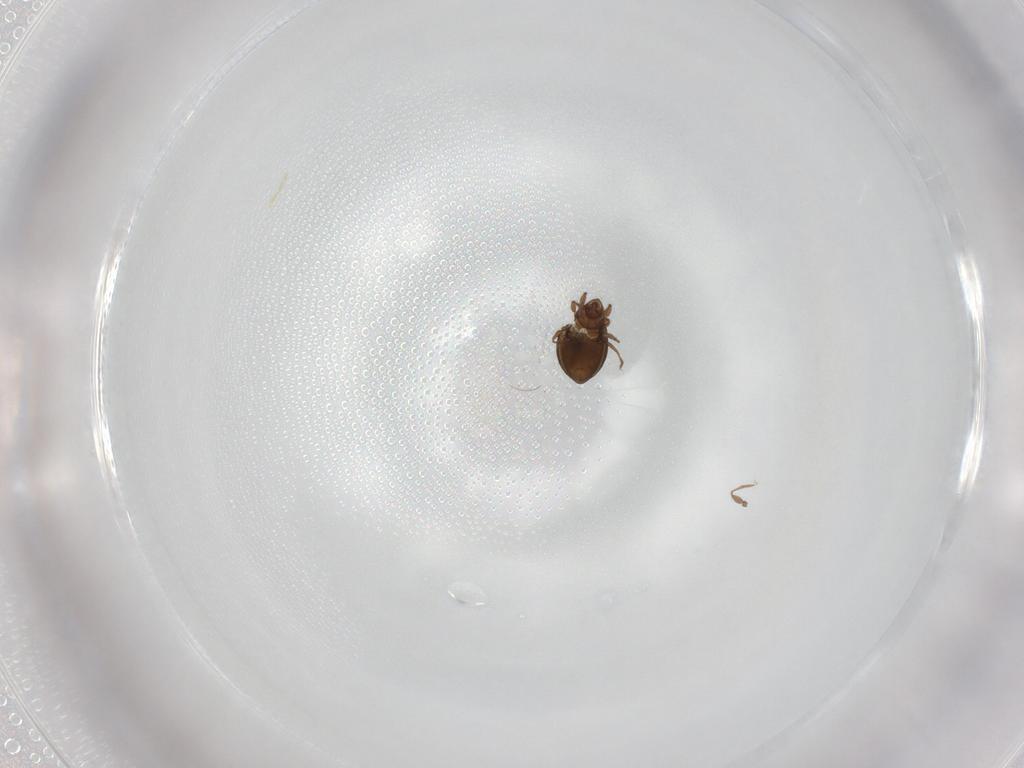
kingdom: Animalia
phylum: Arthropoda
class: Arachnida
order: Sarcoptiformes
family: Oribatulidae
